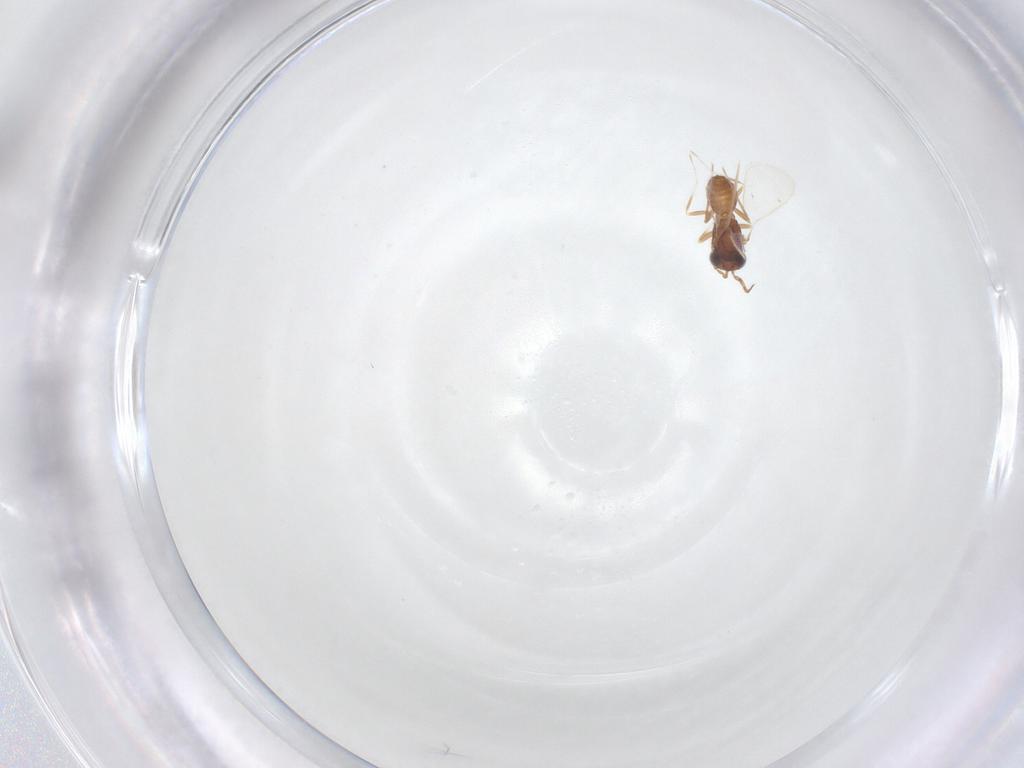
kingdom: Animalia
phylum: Arthropoda
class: Insecta
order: Hymenoptera
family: Eulophidae
